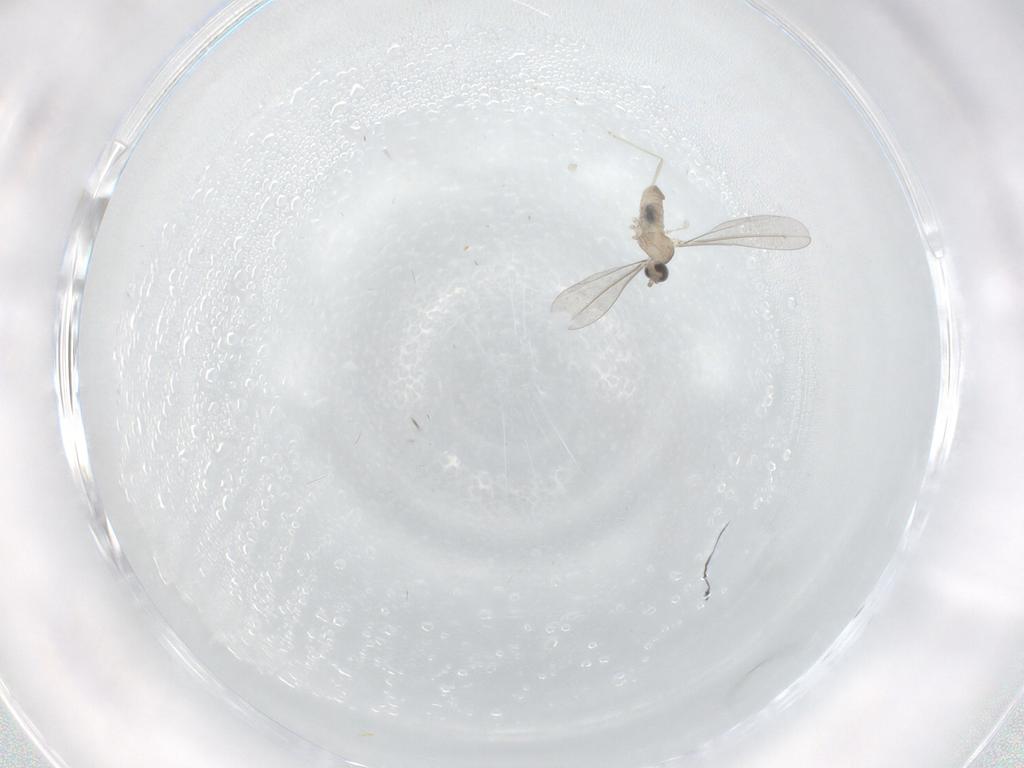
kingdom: Animalia
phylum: Arthropoda
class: Insecta
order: Diptera
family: Cecidomyiidae
